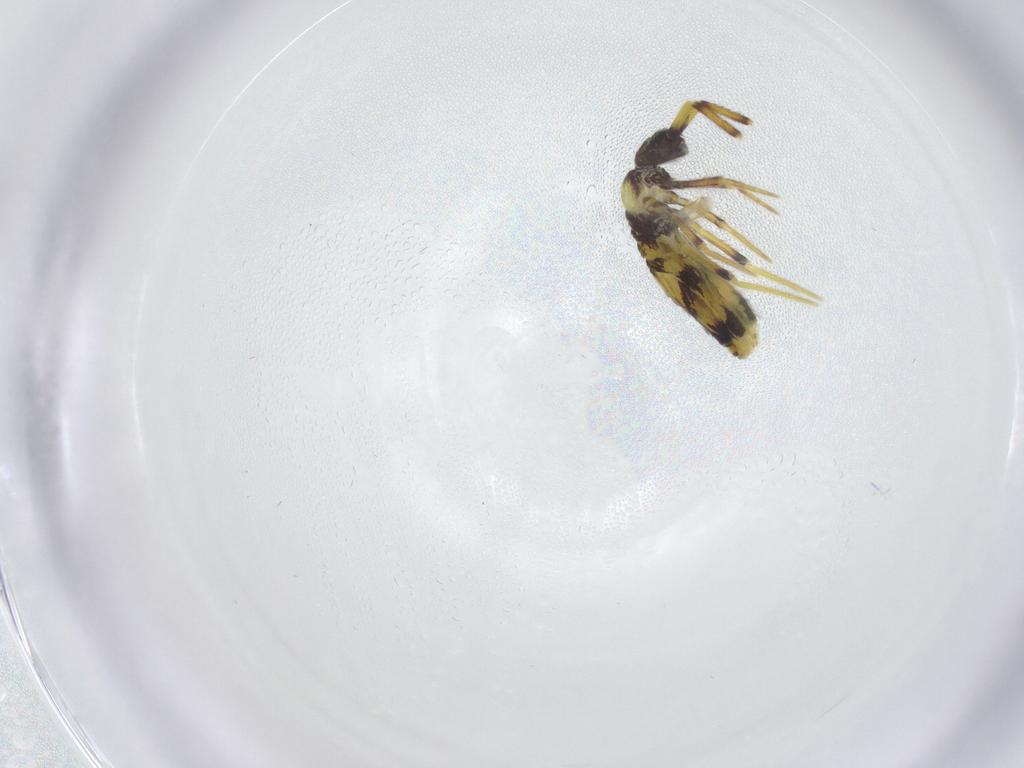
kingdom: Animalia
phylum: Arthropoda
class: Collembola
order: Entomobryomorpha
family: Entomobryidae
